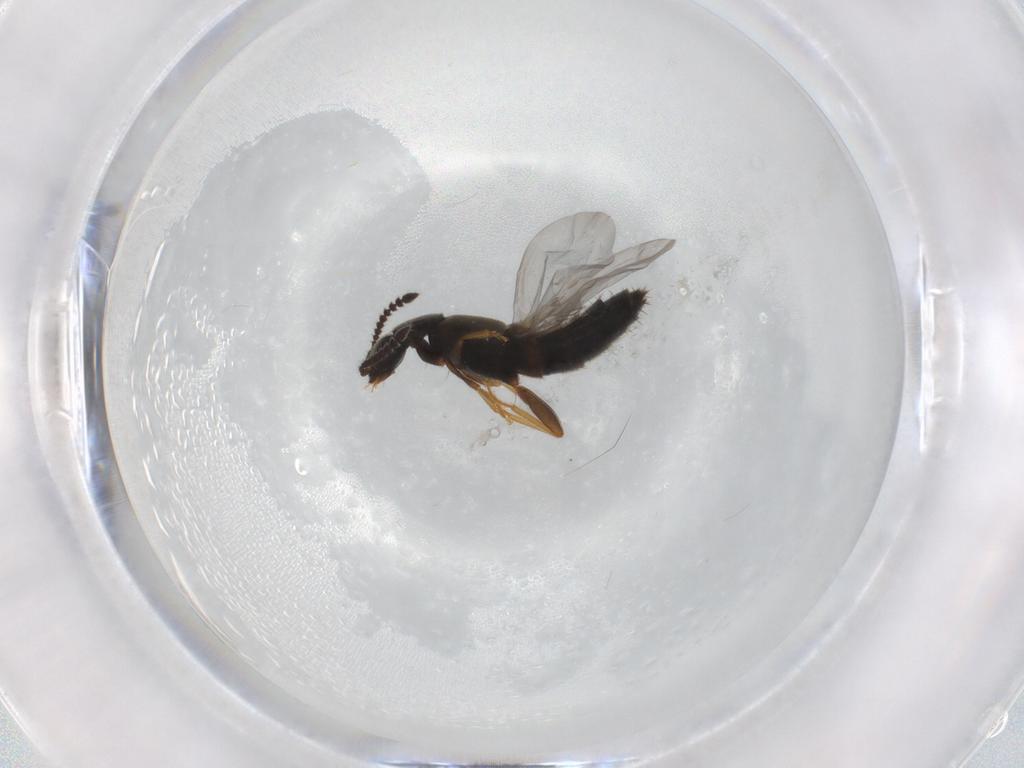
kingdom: Animalia
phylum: Arthropoda
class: Insecta
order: Coleoptera
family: Staphylinidae
